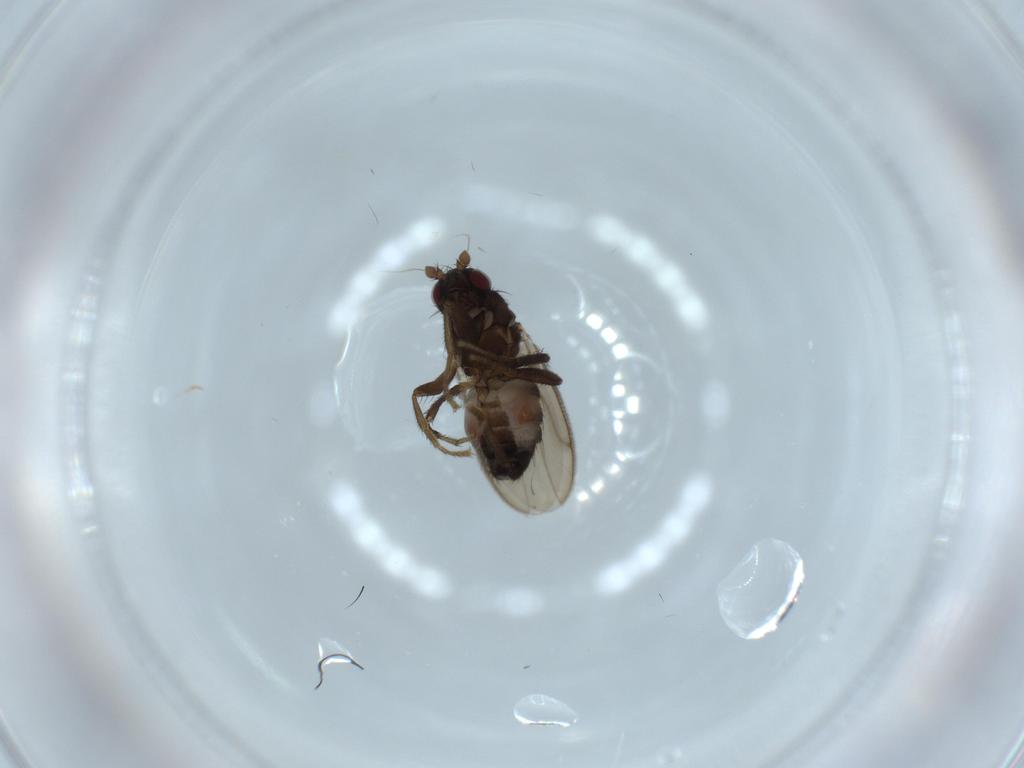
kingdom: Animalia
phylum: Arthropoda
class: Insecta
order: Diptera
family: Sphaeroceridae
